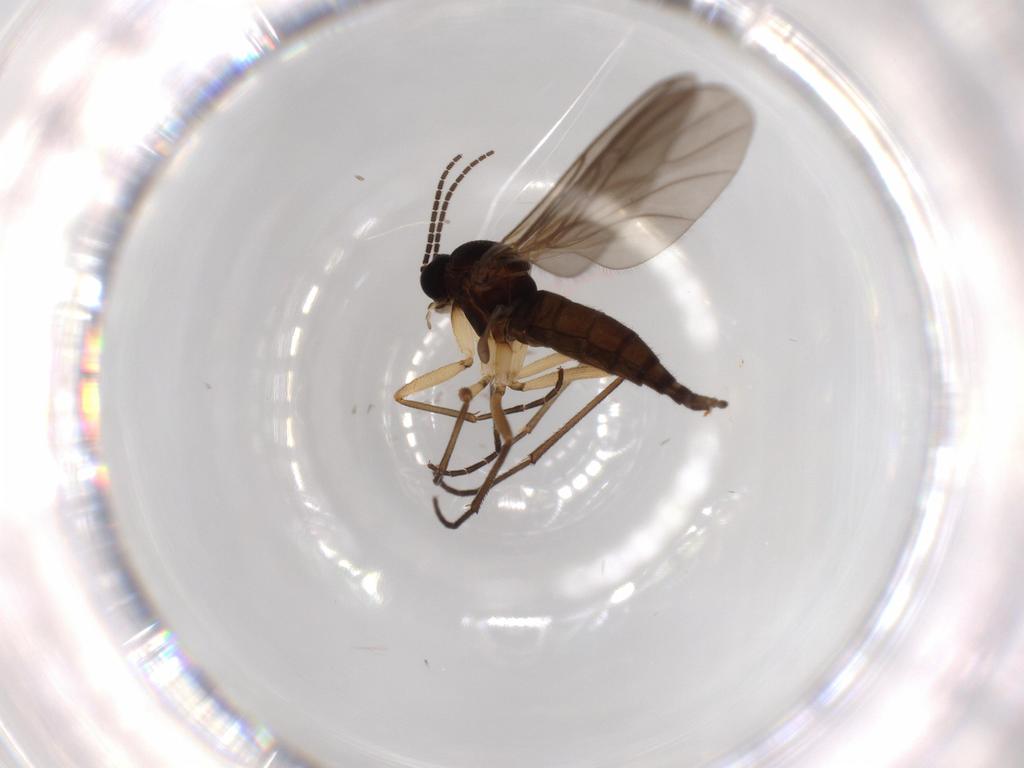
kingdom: Animalia
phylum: Arthropoda
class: Insecta
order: Diptera
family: Sciaridae
